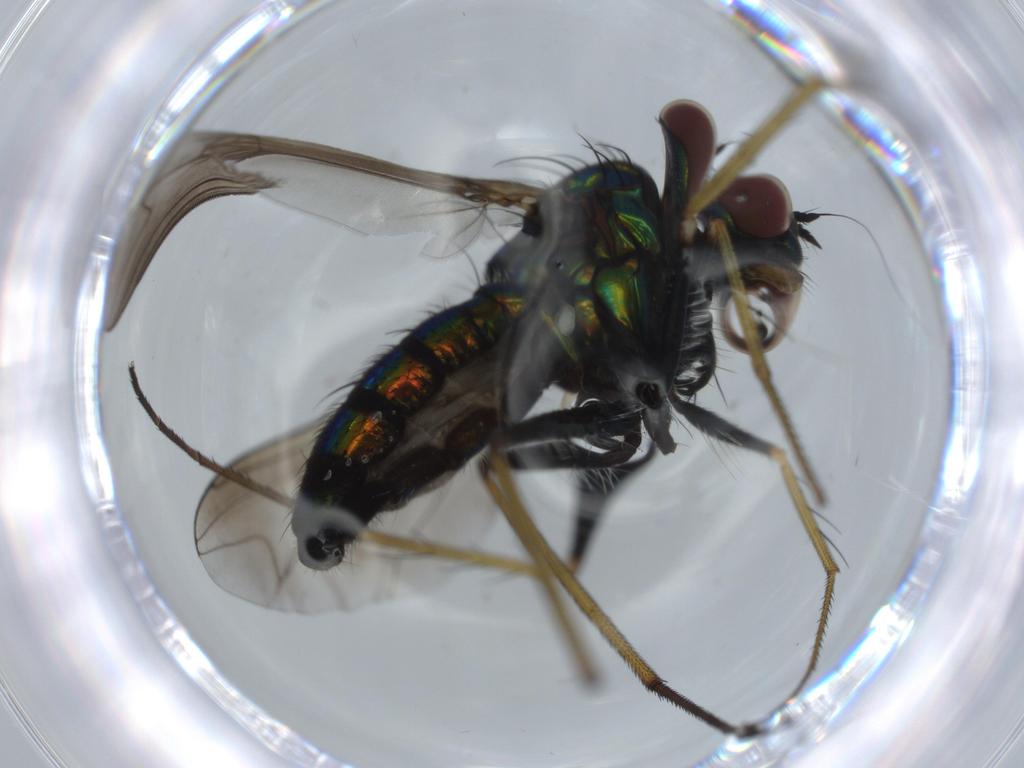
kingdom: Animalia
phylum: Arthropoda
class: Insecta
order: Diptera
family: Dolichopodidae
